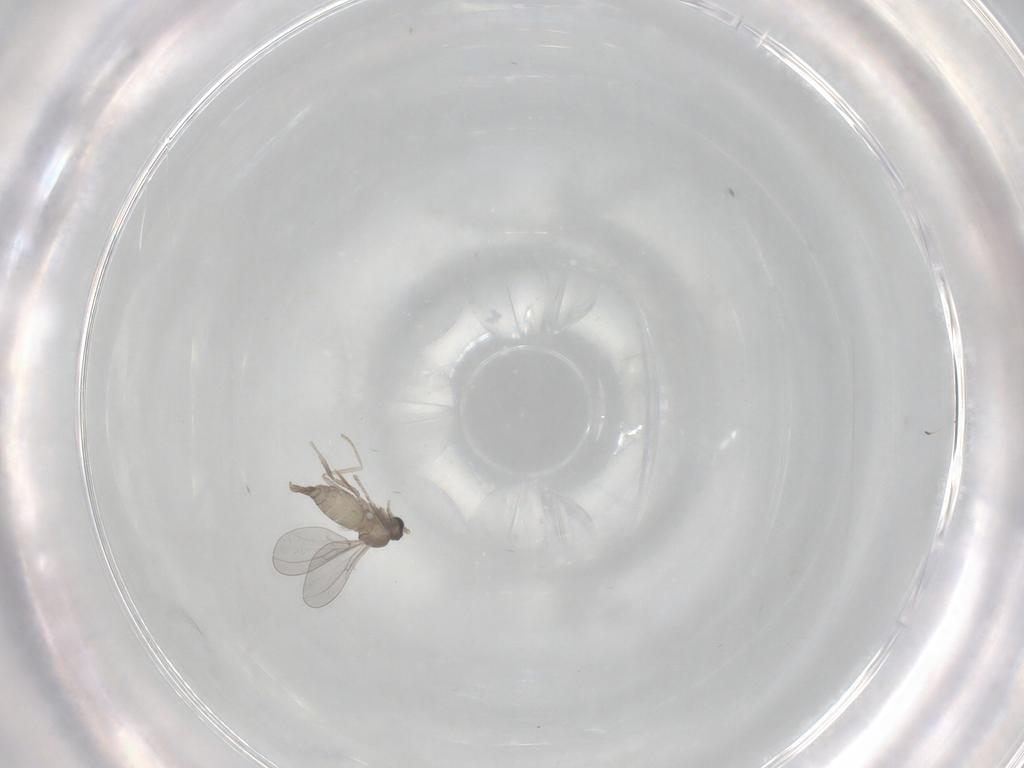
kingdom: Animalia
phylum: Arthropoda
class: Insecta
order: Diptera
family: Cecidomyiidae
